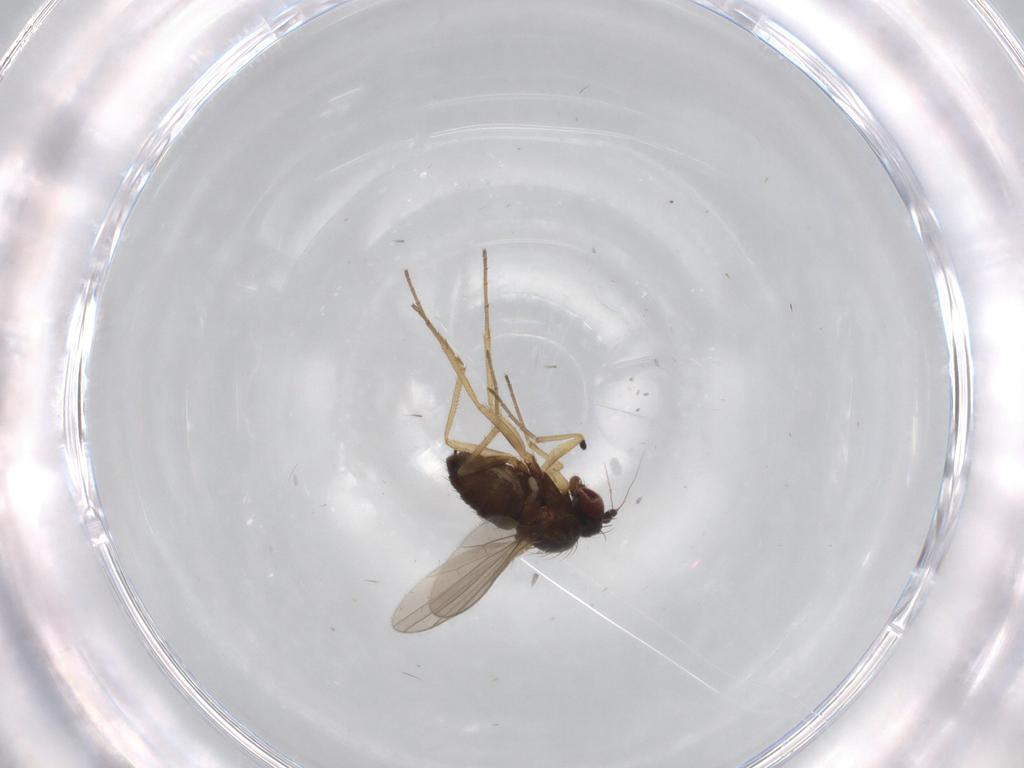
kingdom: Animalia
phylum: Arthropoda
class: Insecta
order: Diptera
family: Dolichopodidae
